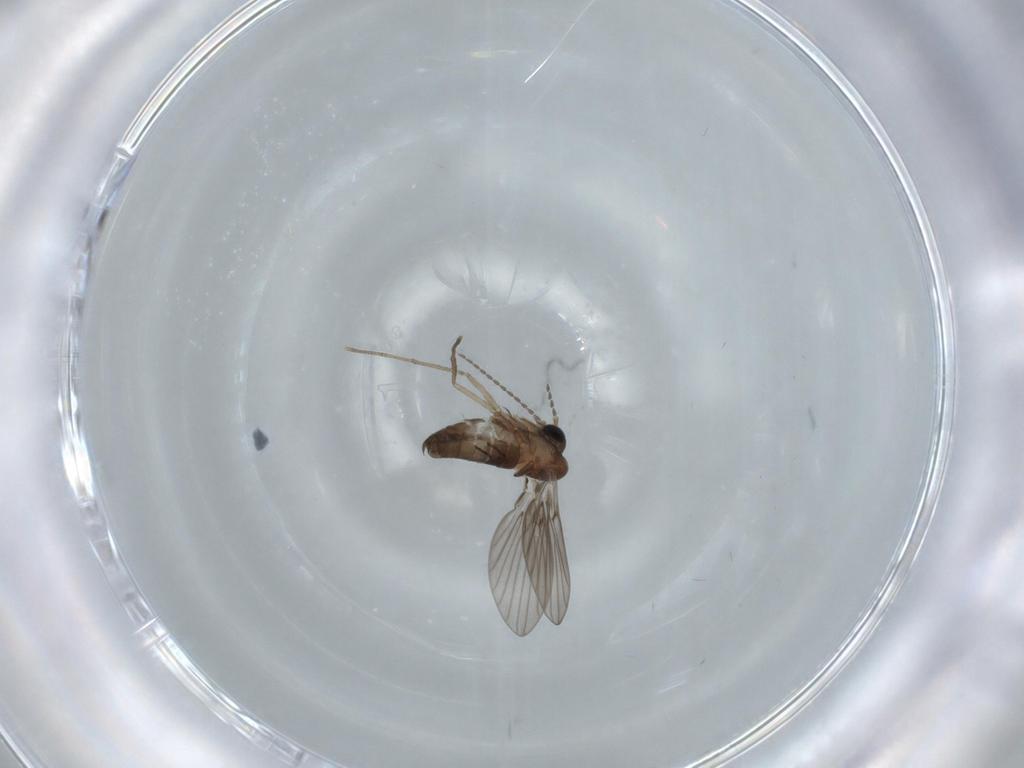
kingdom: Animalia
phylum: Arthropoda
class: Insecta
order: Diptera
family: Psychodidae
